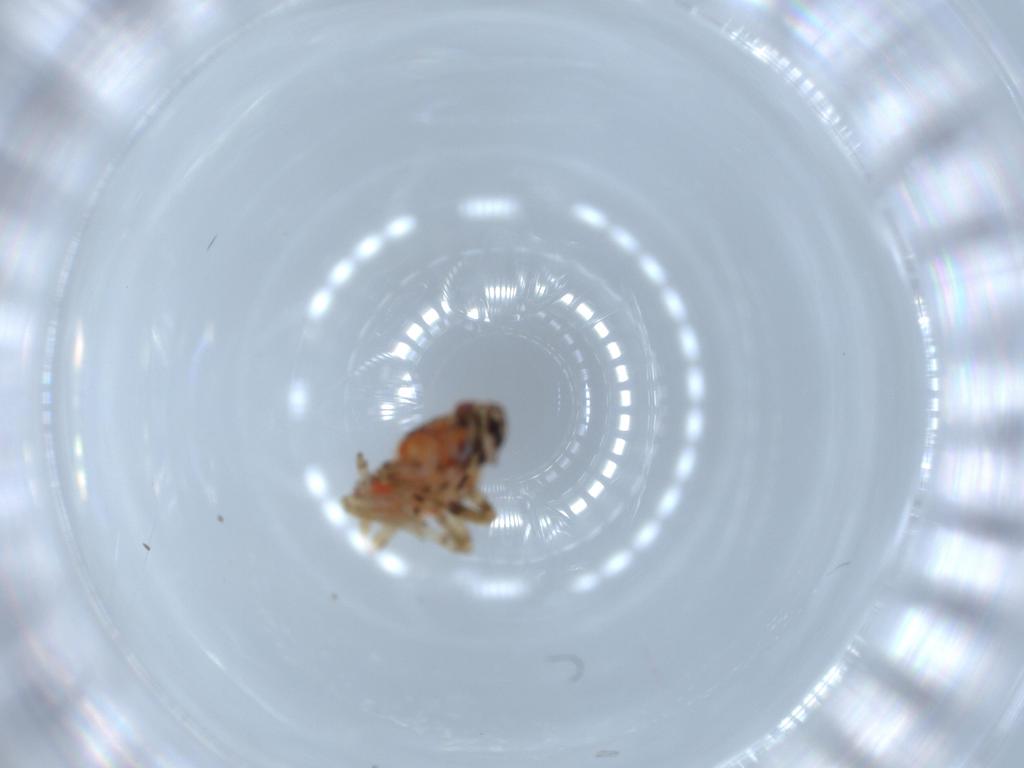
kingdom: Animalia
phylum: Arthropoda
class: Insecta
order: Hemiptera
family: Issidae
